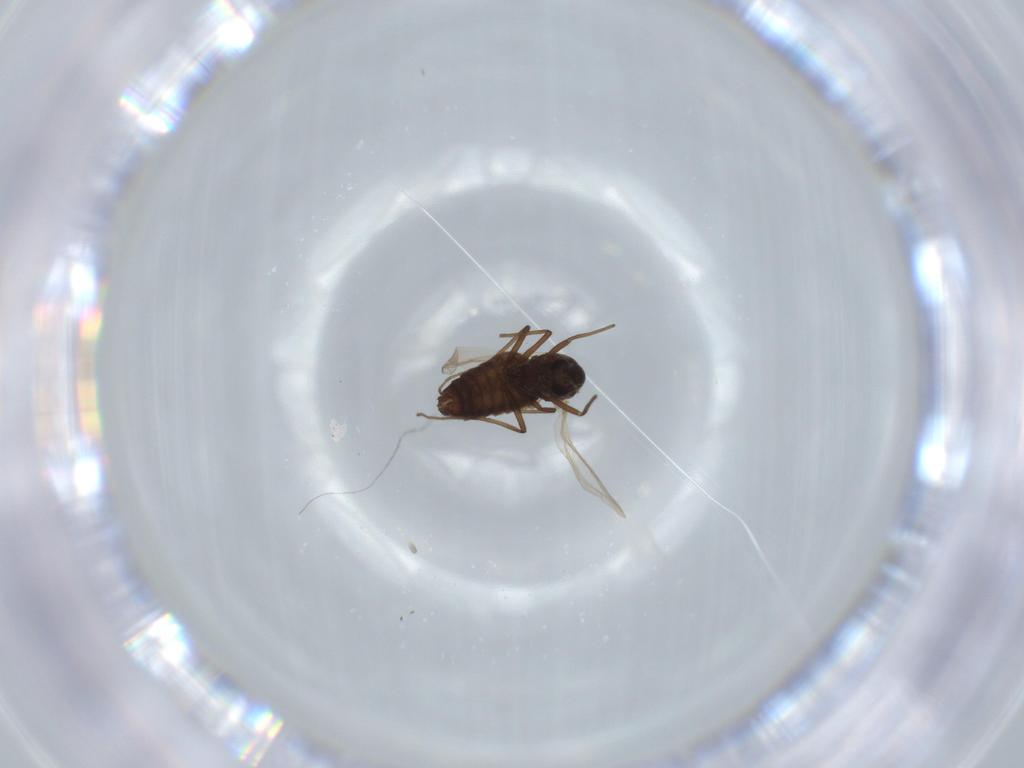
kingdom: Animalia
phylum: Arthropoda
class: Insecta
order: Diptera
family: Chironomidae
